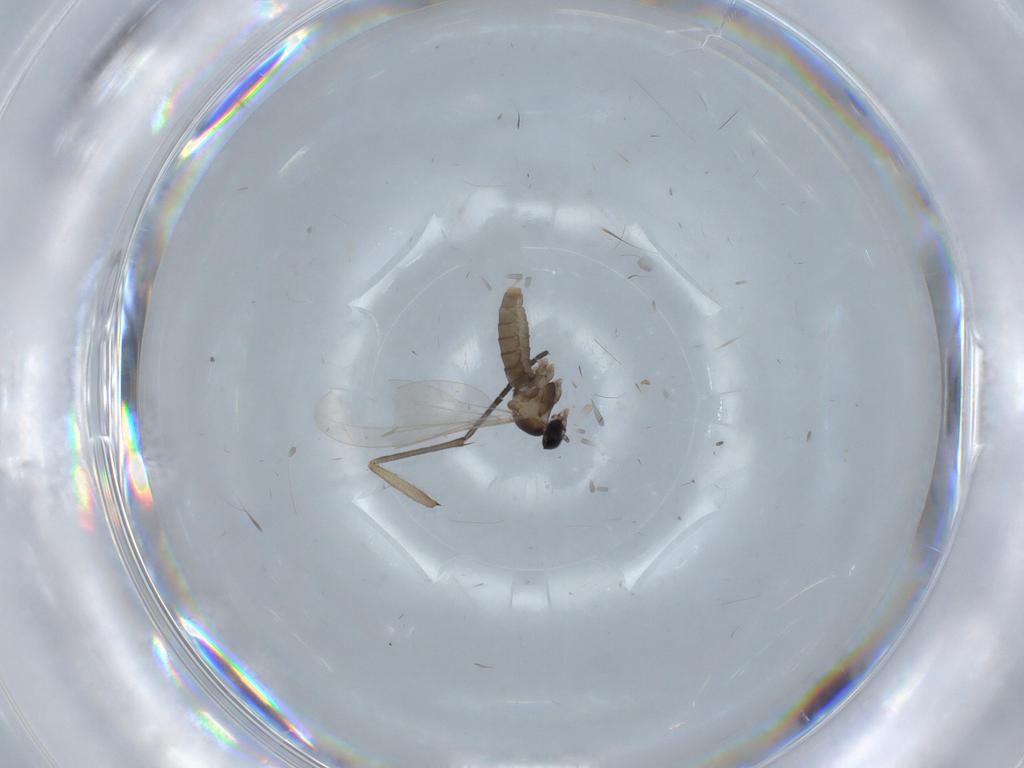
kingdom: Animalia
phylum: Arthropoda
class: Insecta
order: Diptera
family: Cecidomyiidae
